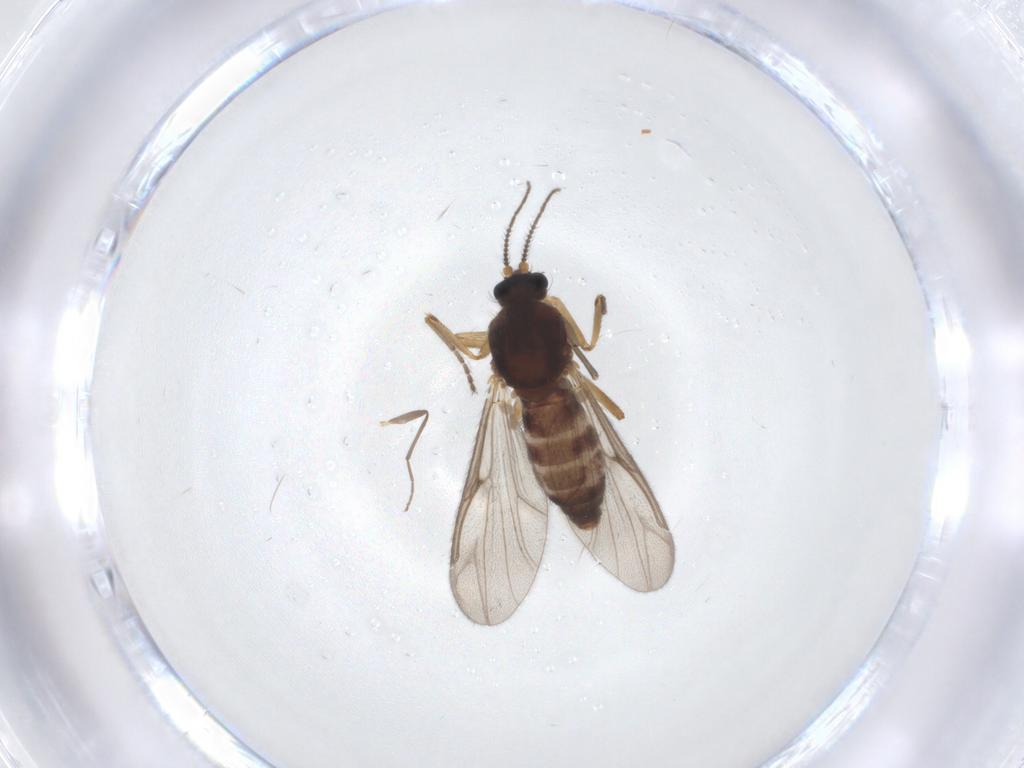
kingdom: Animalia
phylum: Arthropoda
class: Insecta
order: Diptera
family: Ceratopogonidae
